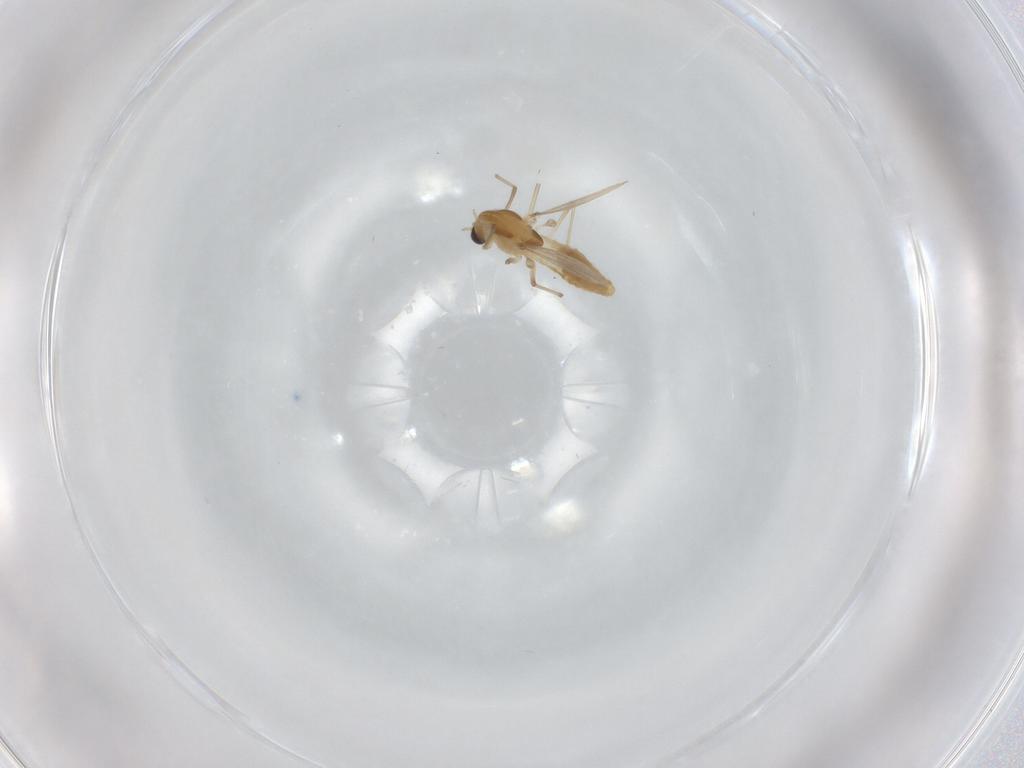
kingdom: Animalia
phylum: Arthropoda
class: Insecta
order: Diptera
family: Chironomidae
